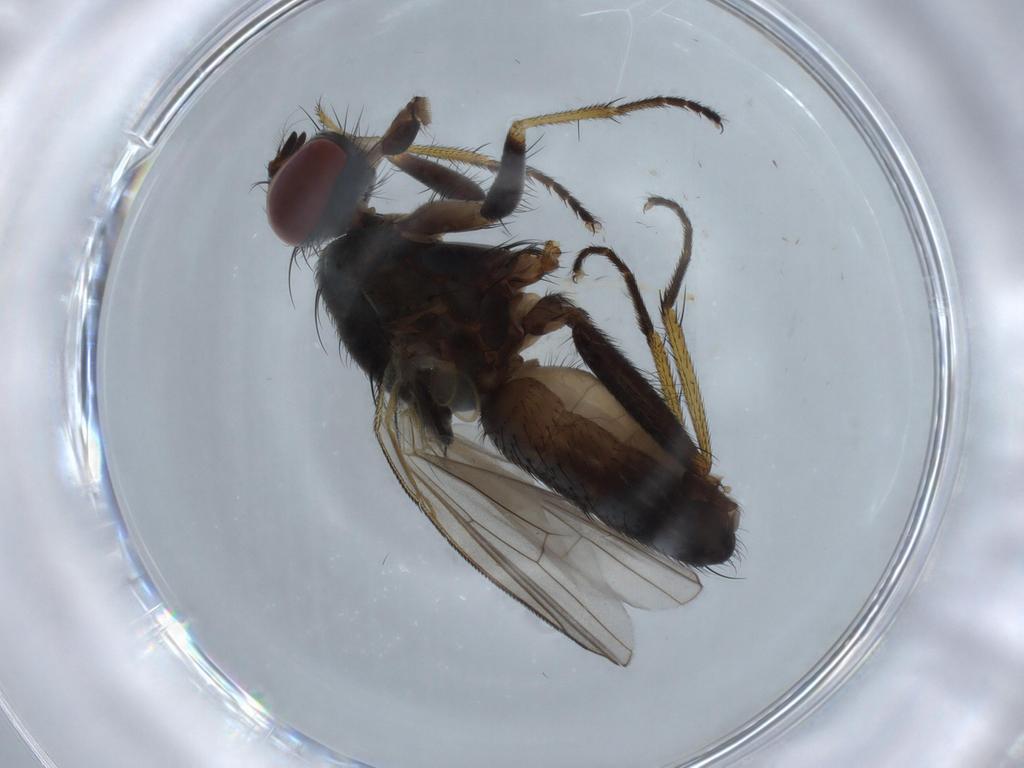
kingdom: Animalia
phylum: Arthropoda
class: Insecta
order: Diptera
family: Muscidae
